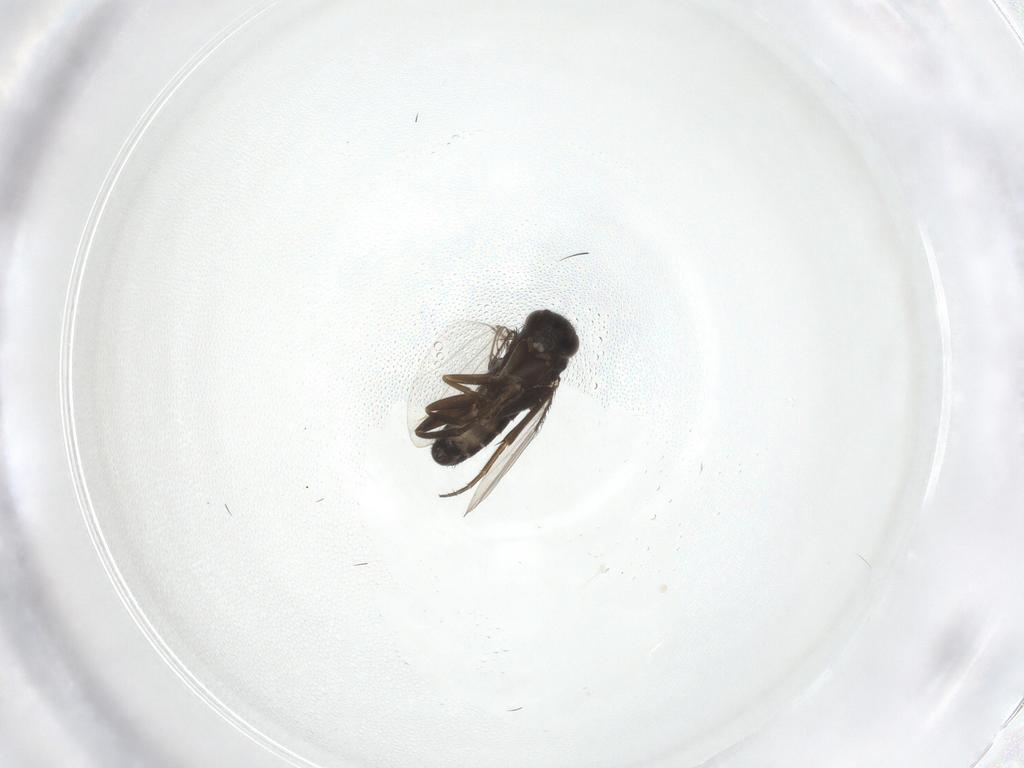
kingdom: Animalia
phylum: Arthropoda
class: Insecta
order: Diptera
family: Phoridae
